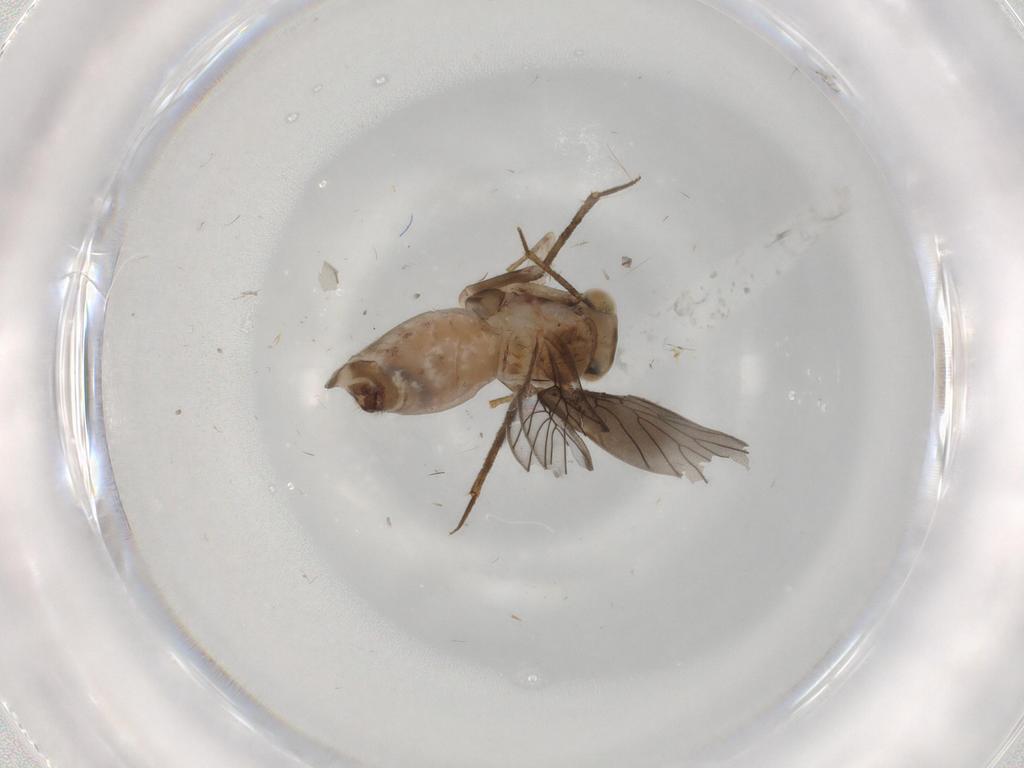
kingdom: Animalia
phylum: Arthropoda
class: Insecta
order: Psocodea
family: Lepidopsocidae
